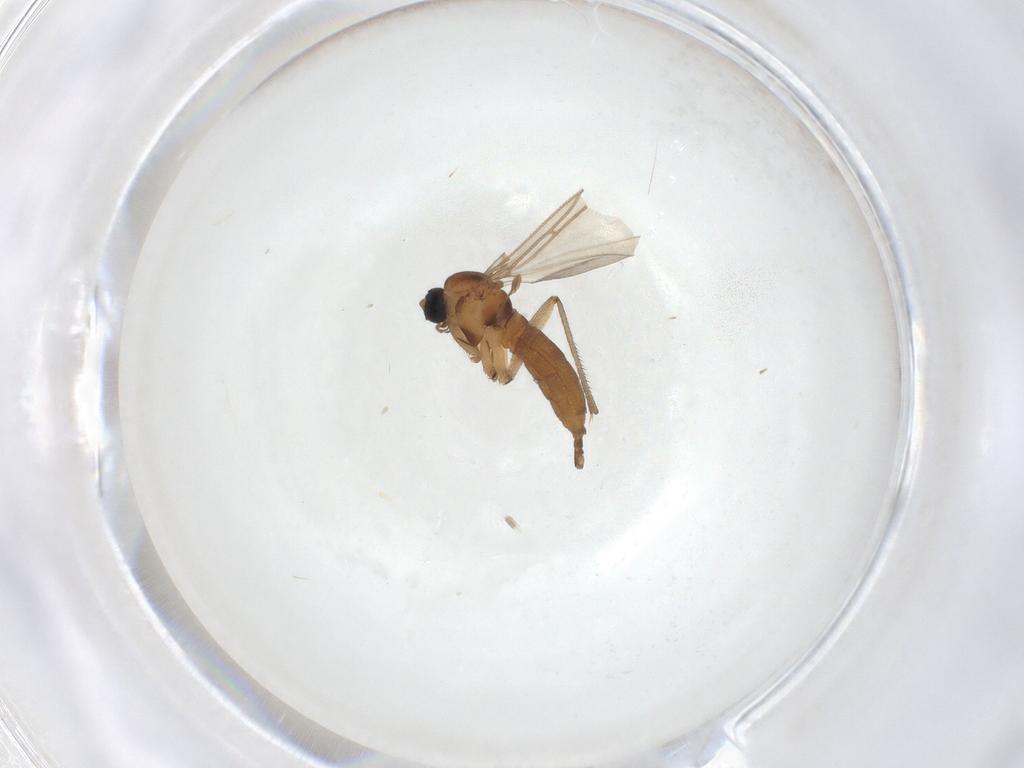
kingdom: Animalia
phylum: Arthropoda
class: Insecta
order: Diptera
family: Sciaridae
